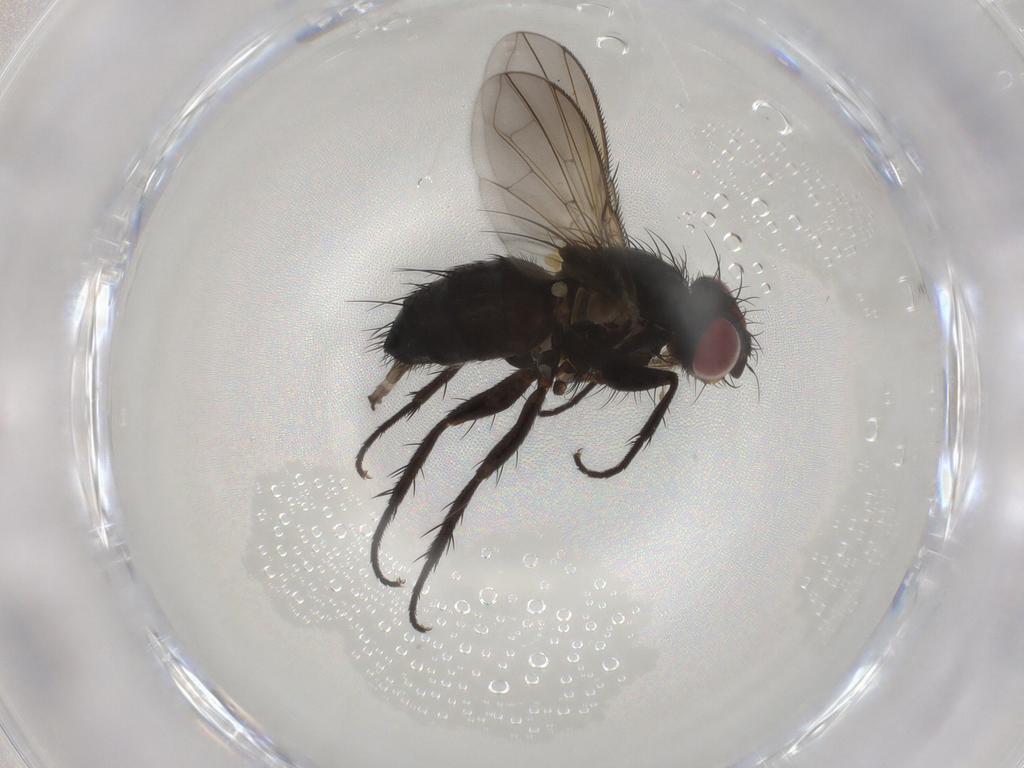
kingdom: Animalia
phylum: Arthropoda
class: Insecta
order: Diptera
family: Calliphoridae
